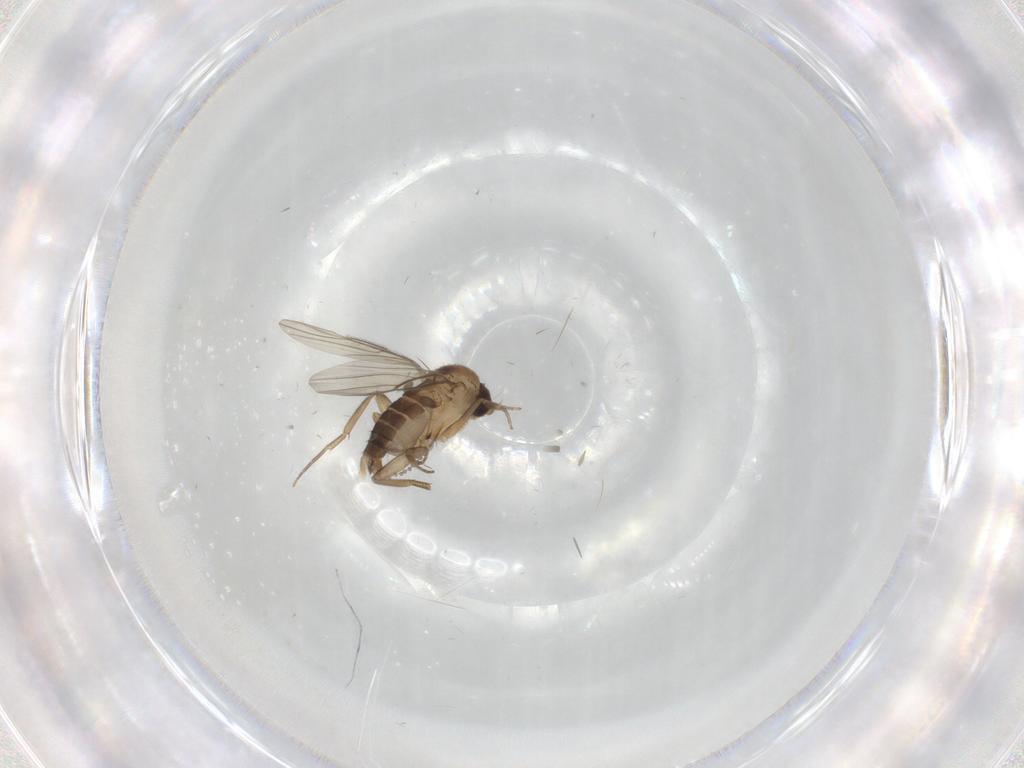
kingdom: Animalia
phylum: Arthropoda
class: Insecta
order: Diptera
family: Cecidomyiidae
